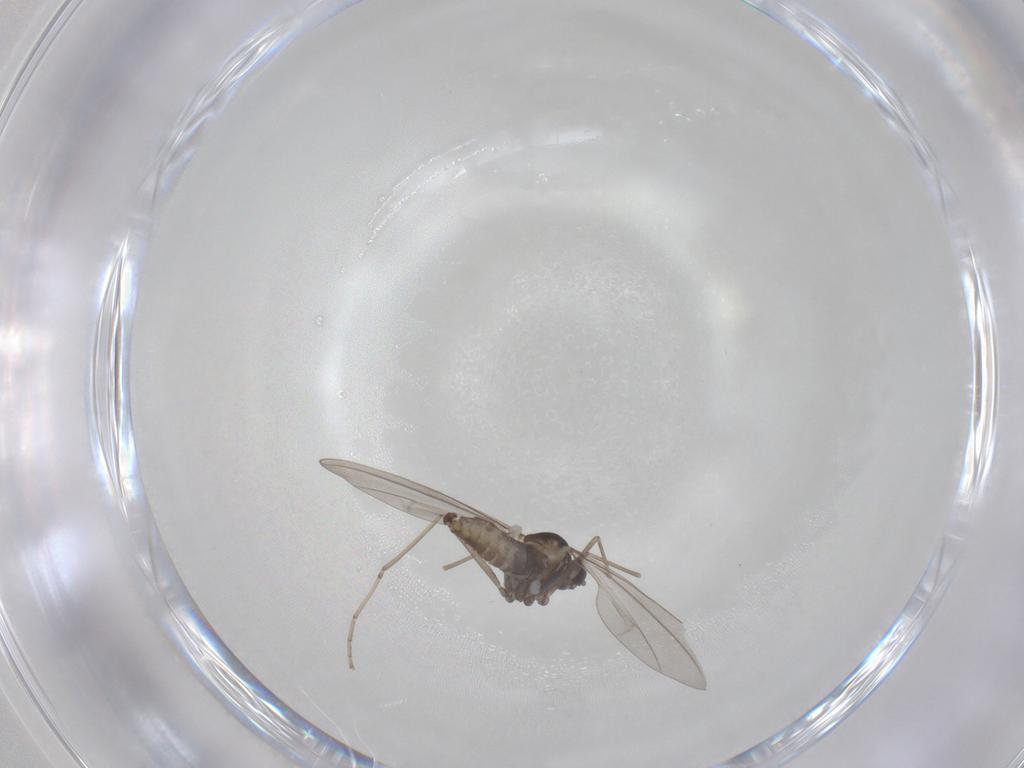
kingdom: Animalia
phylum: Arthropoda
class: Insecta
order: Diptera
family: Cecidomyiidae
